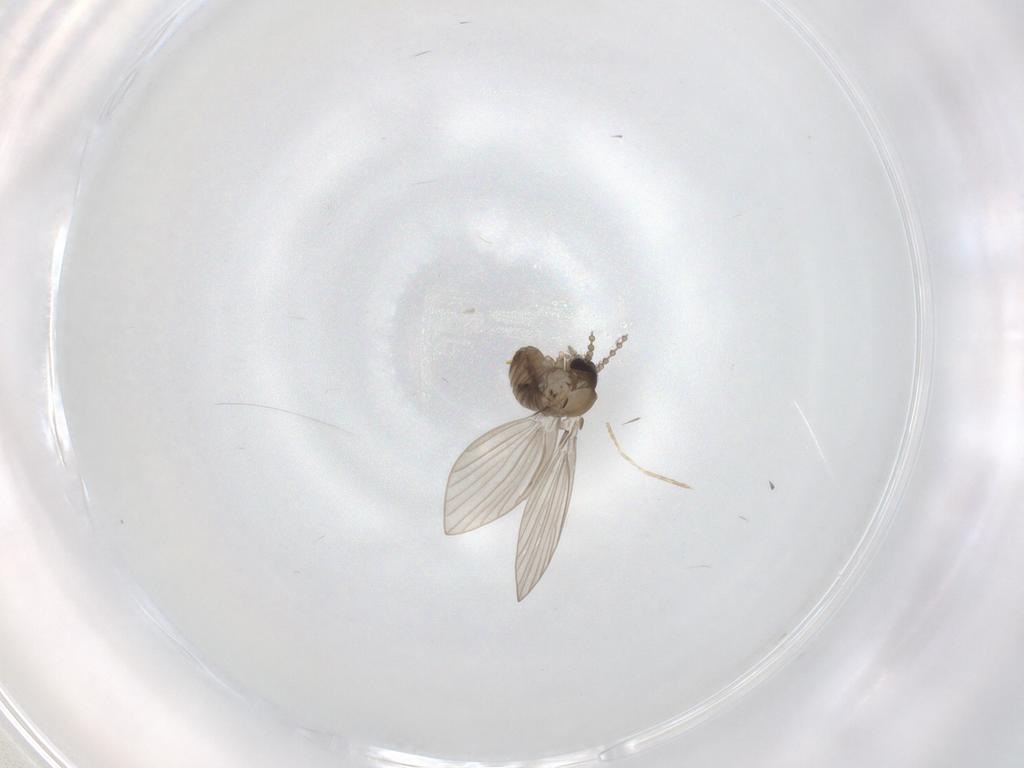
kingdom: Animalia
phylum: Arthropoda
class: Insecta
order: Diptera
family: Psychodidae
